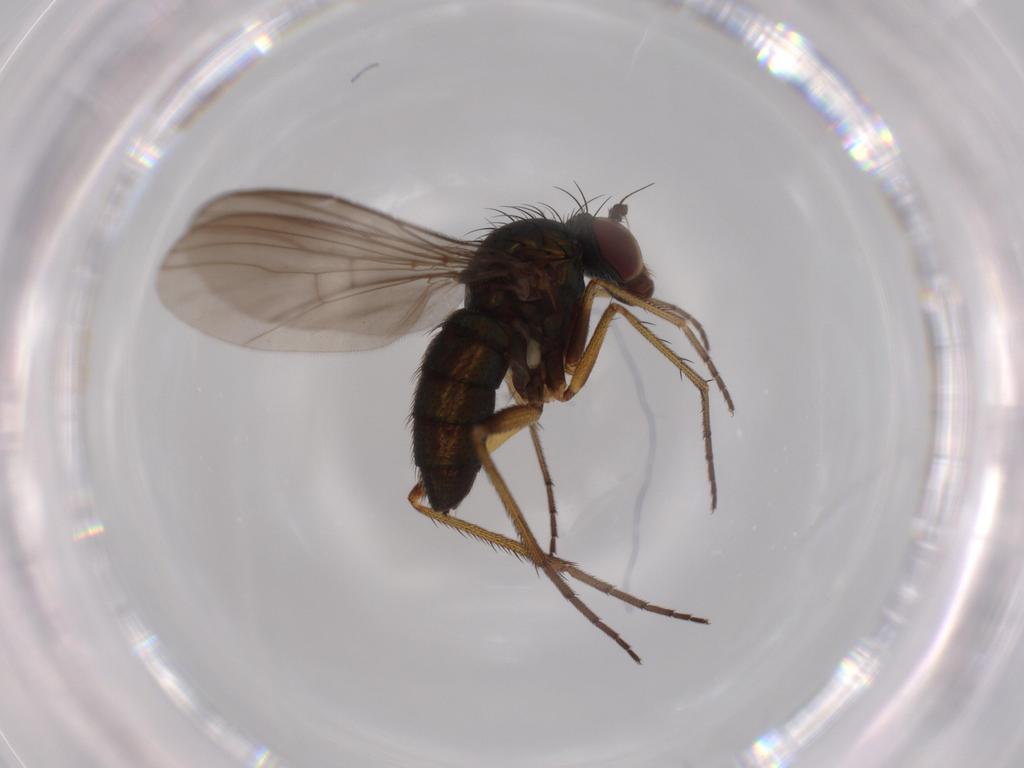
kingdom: Animalia
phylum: Arthropoda
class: Insecta
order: Diptera
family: Dolichopodidae
